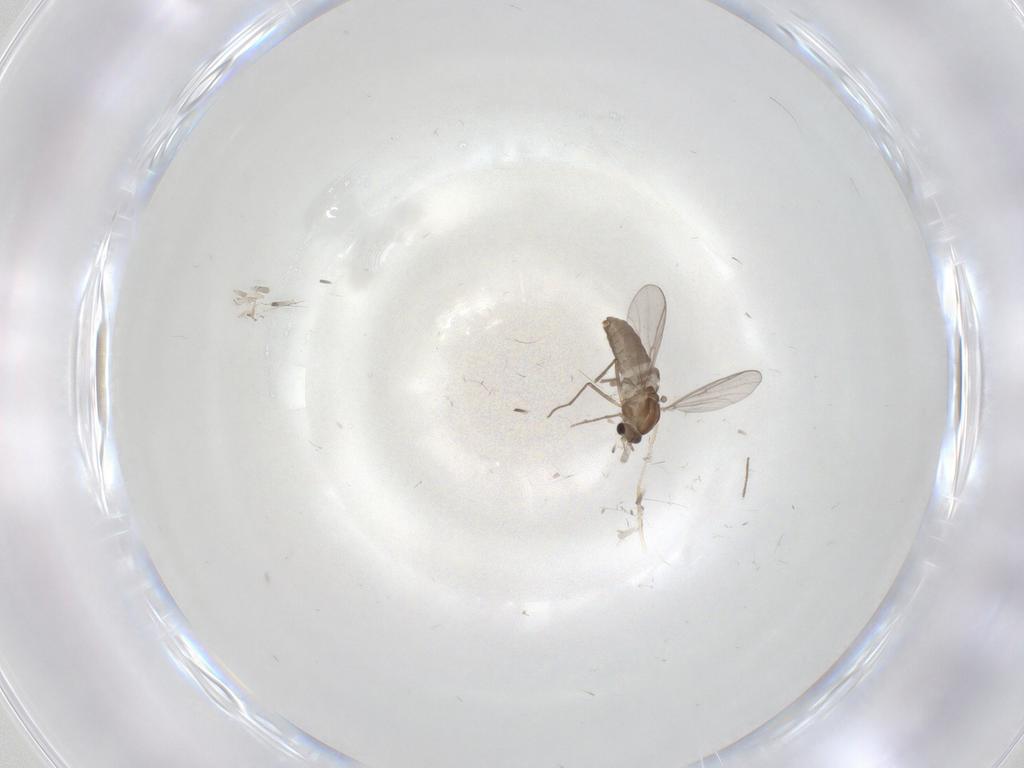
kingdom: Animalia
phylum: Arthropoda
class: Insecta
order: Diptera
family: Chironomidae
